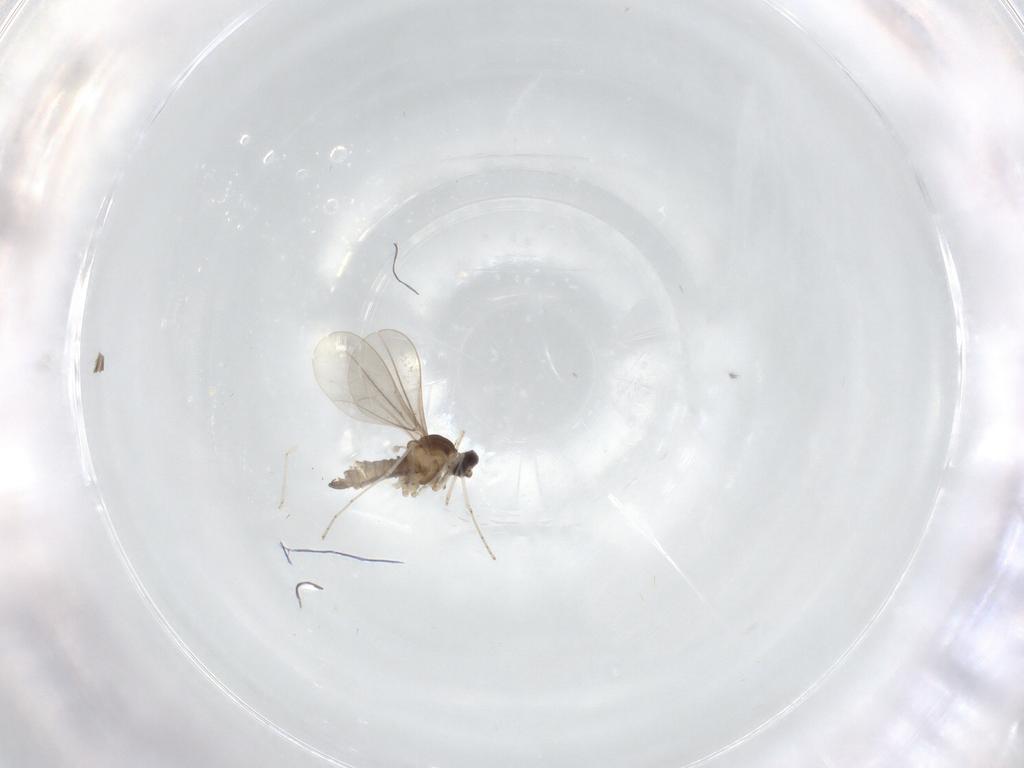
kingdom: Animalia
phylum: Arthropoda
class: Insecta
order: Diptera
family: Cecidomyiidae
